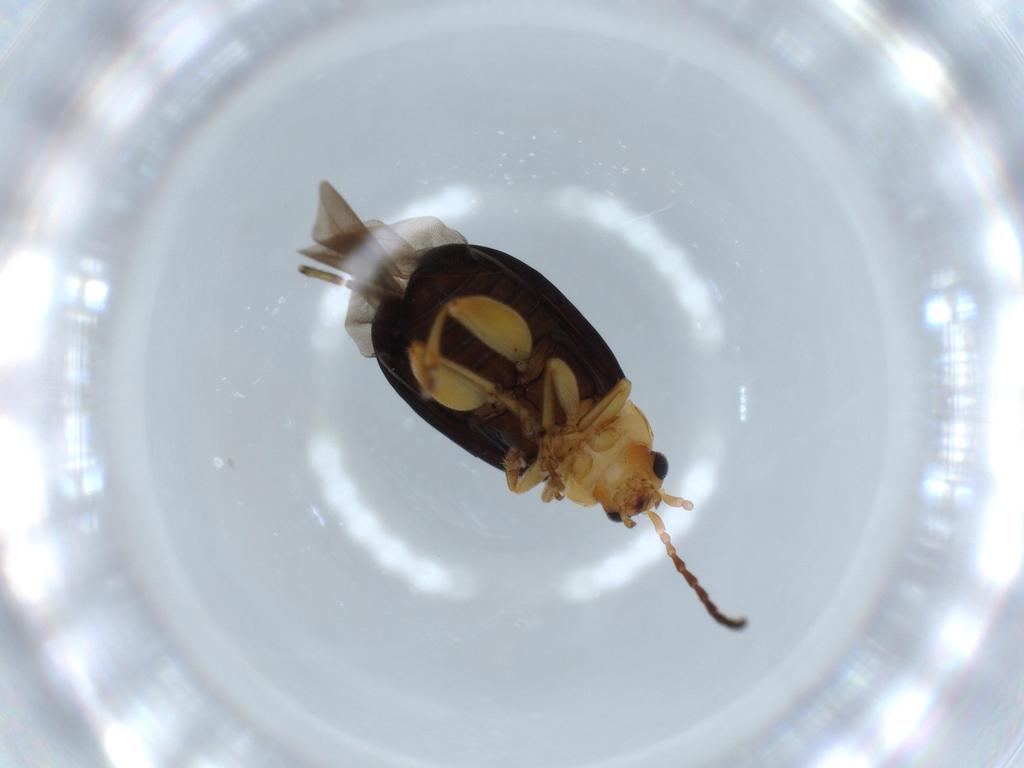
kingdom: Animalia
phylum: Arthropoda
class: Insecta
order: Coleoptera
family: Chrysomelidae
